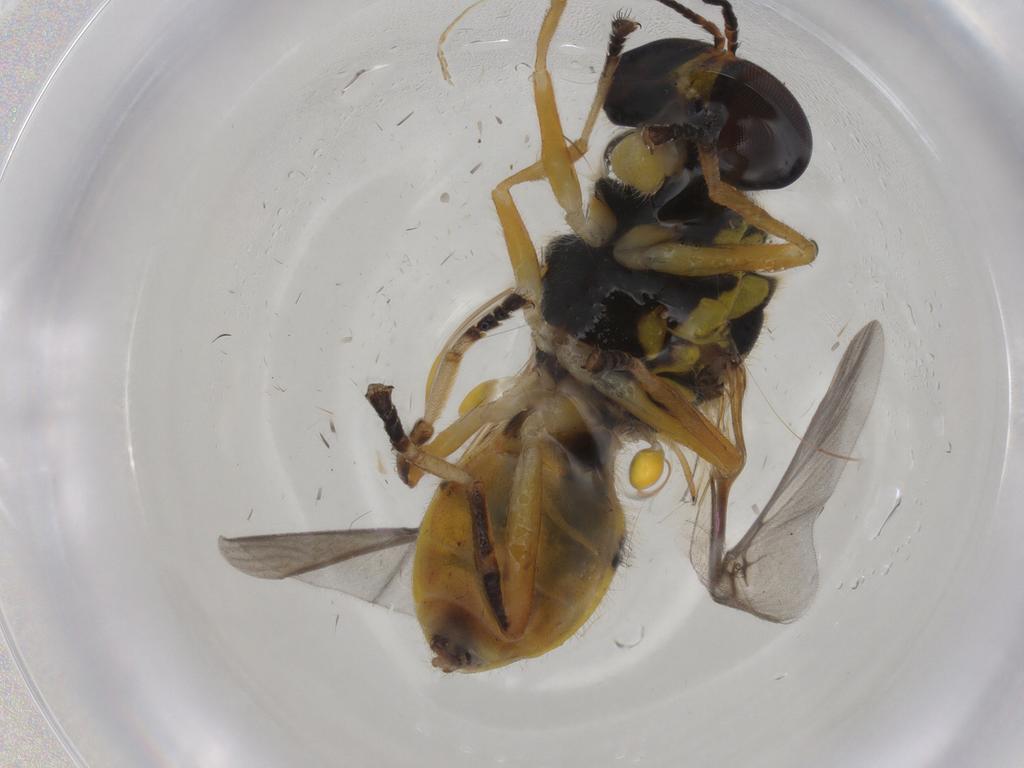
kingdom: Animalia
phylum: Arthropoda
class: Insecta
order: Diptera
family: Stratiomyidae
